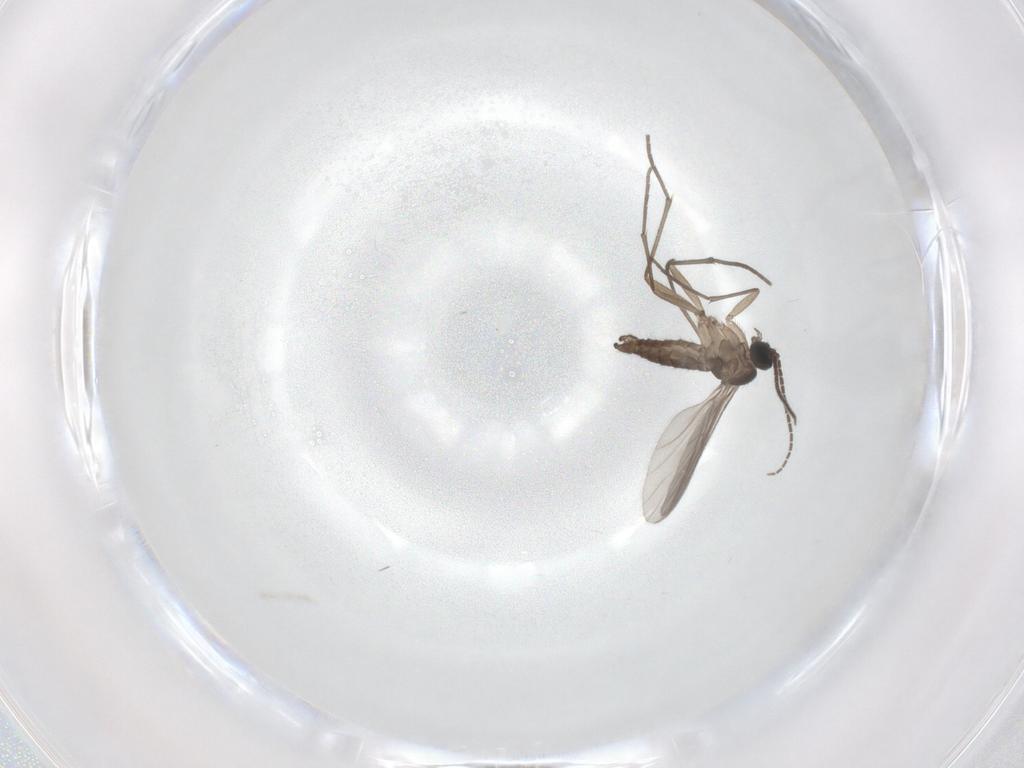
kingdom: Animalia
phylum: Arthropoda
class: Insecta
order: Diptera
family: Sciaridae
